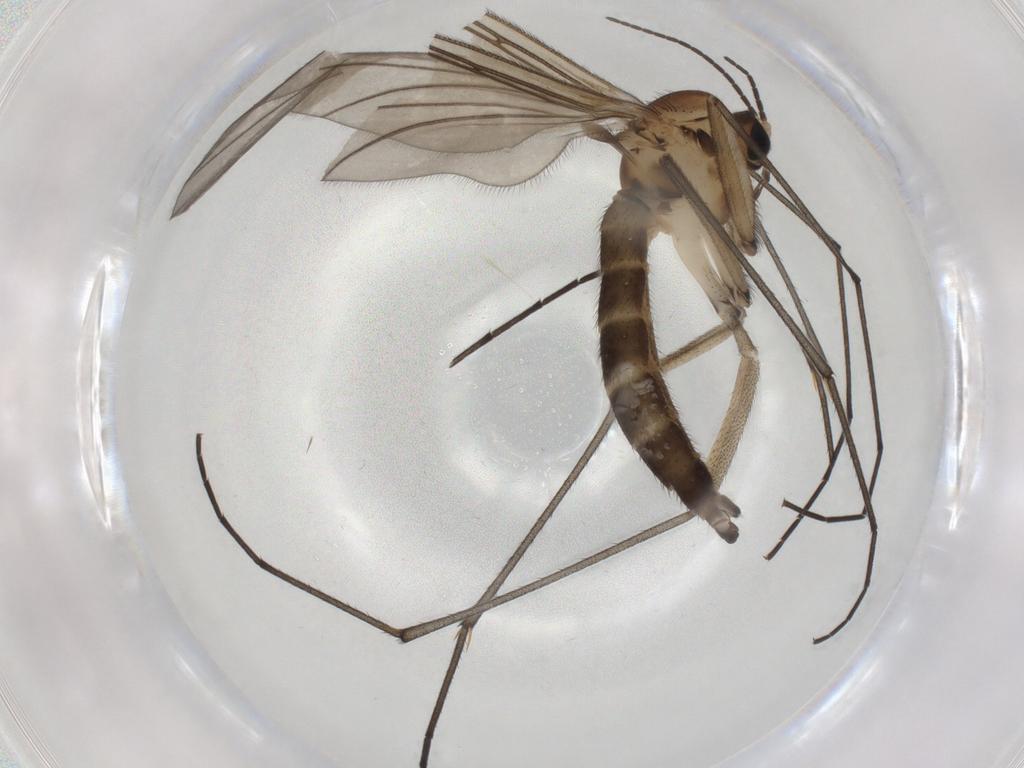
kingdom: Animalia
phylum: Arthropoda
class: Insecta
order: Diptera
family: Sciaridae
